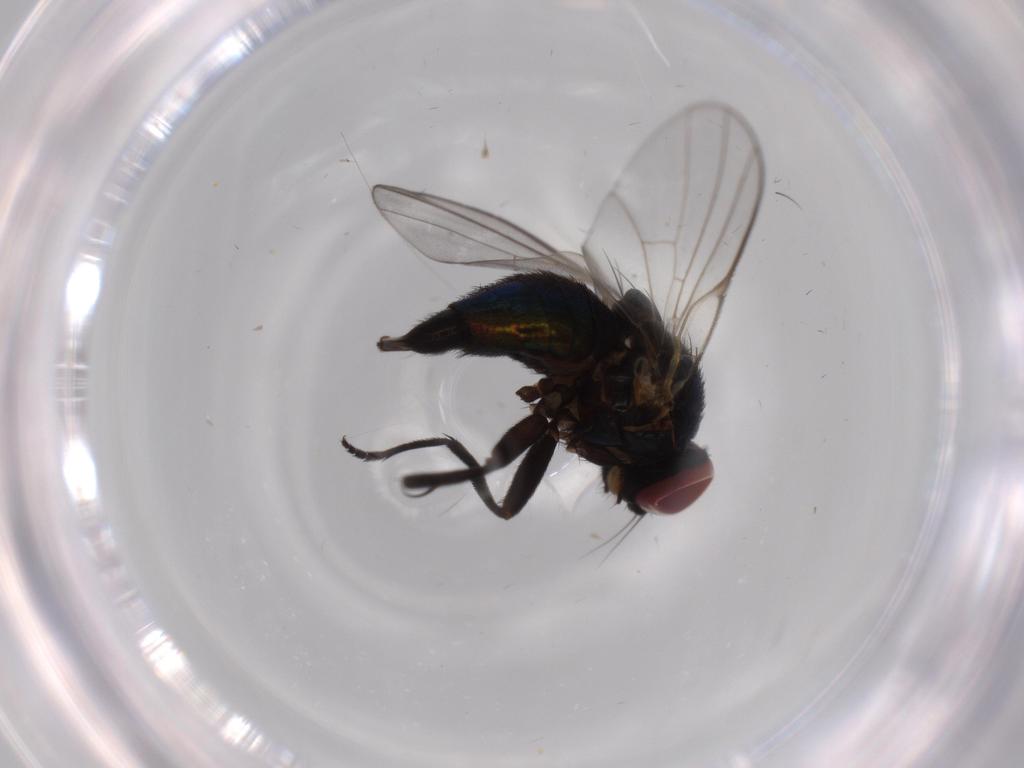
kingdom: Animalia
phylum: Arthropoda
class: Insecta
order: Diptera
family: Agromyzidae
